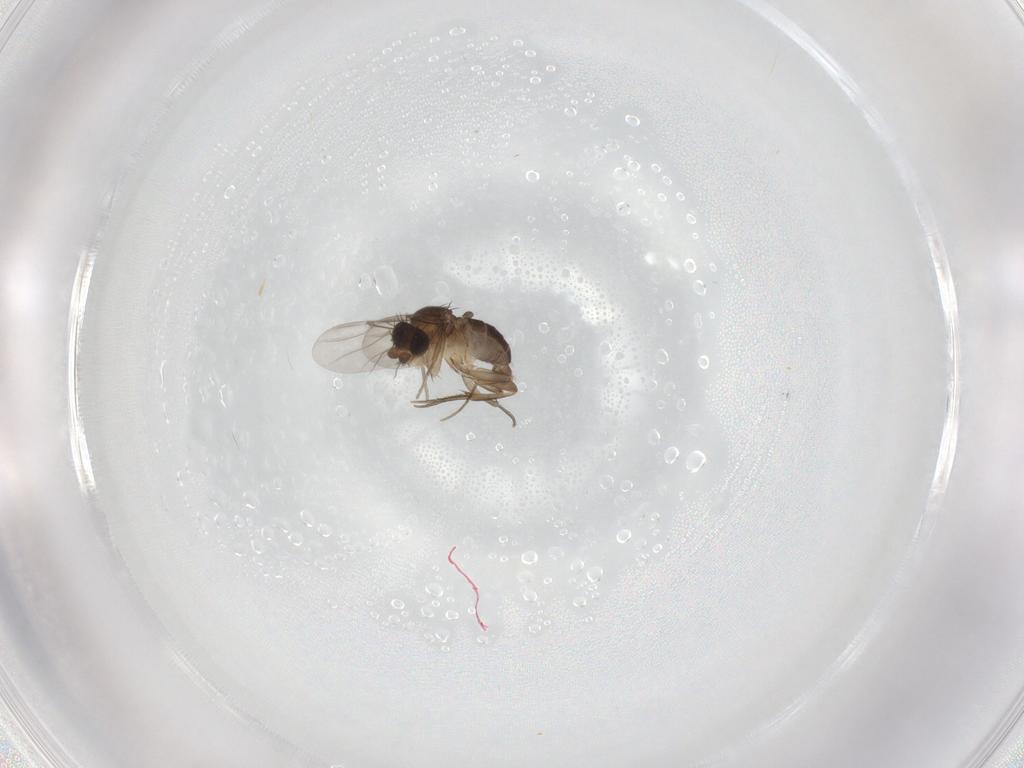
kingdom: Animalia
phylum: Arthropoda
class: Insecta
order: Diptera
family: Phoridae
